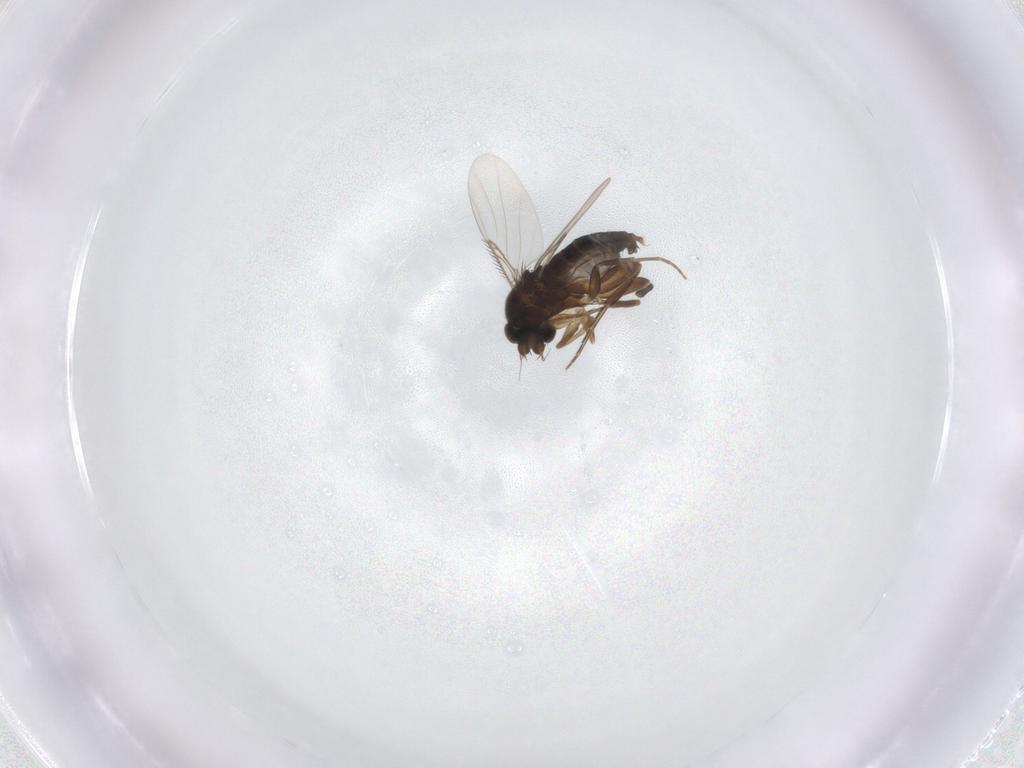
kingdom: Animalia
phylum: Arthropoda
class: Insecta
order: Diptera
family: Phoridae
